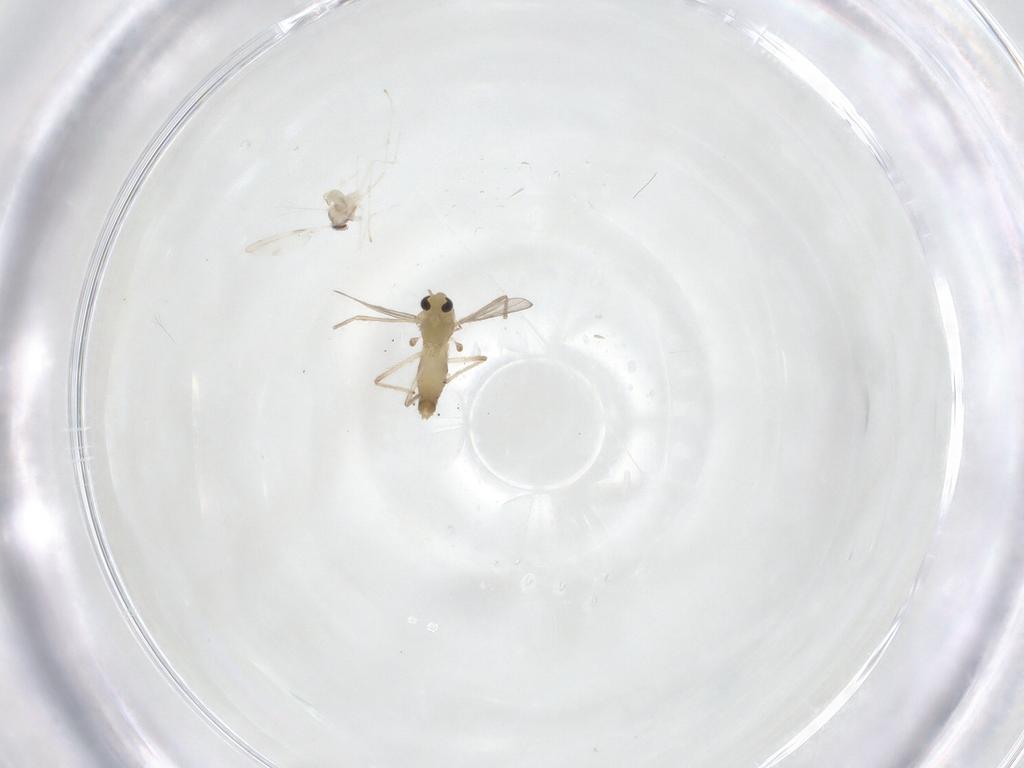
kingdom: Animalia
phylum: Arthropoda
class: Insecta
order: Diptera
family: Chironomidae
